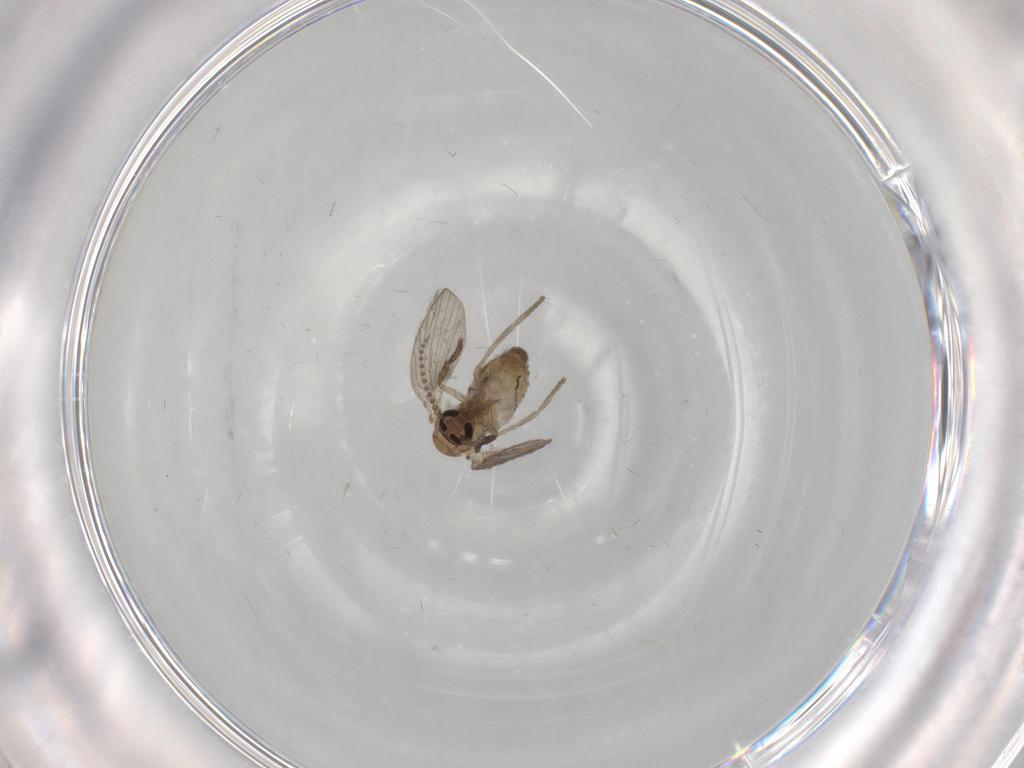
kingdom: Animalia
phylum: Arthropoda
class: Insecta
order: Diptera
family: Psychodidae
